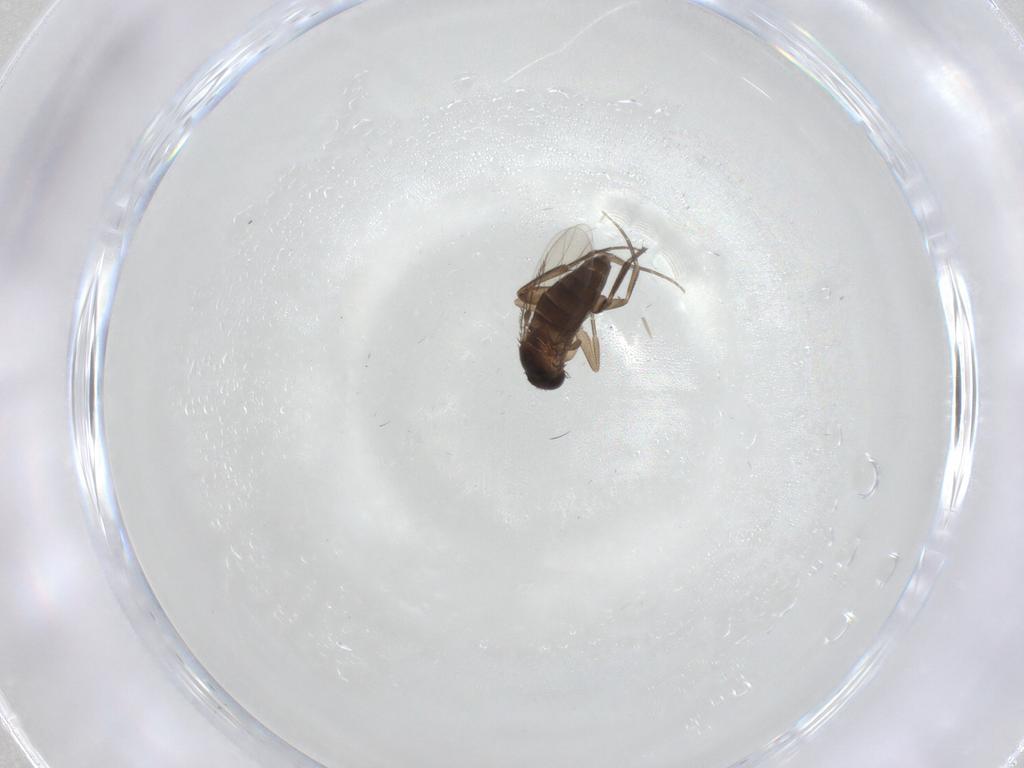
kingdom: Animalia
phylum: Arthropoda
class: Insecta
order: Diptera
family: Phoridae
